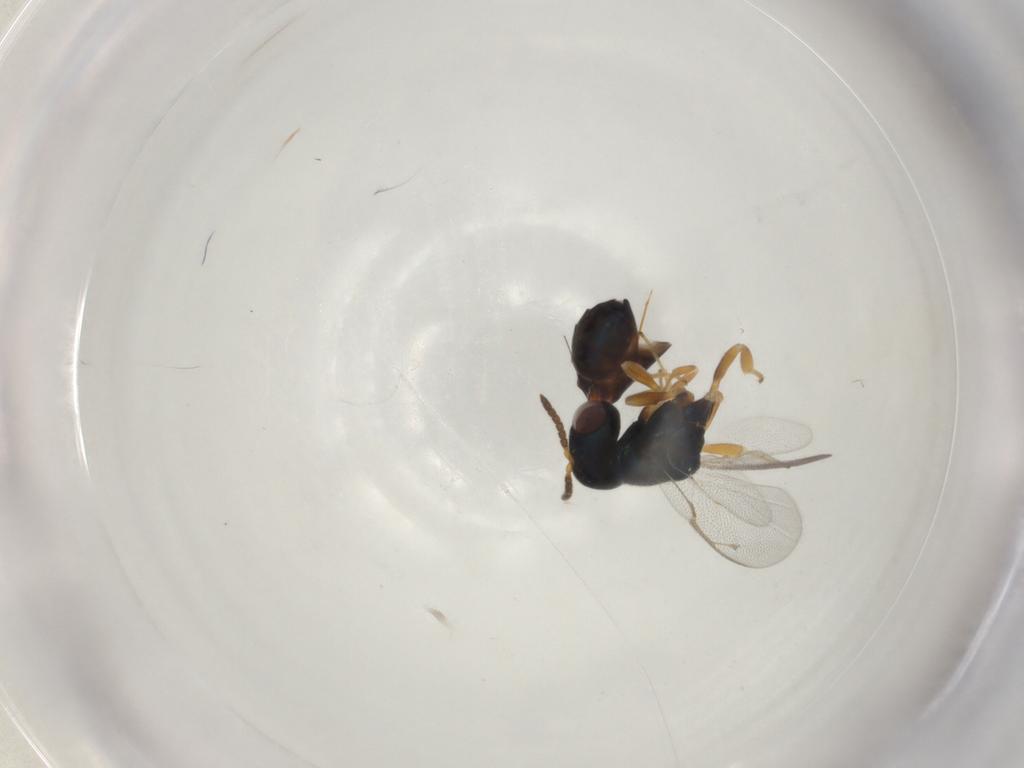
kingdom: Animalia
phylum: Arthropoda
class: Insecta
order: Hymenoptera
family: Pteromalidae
